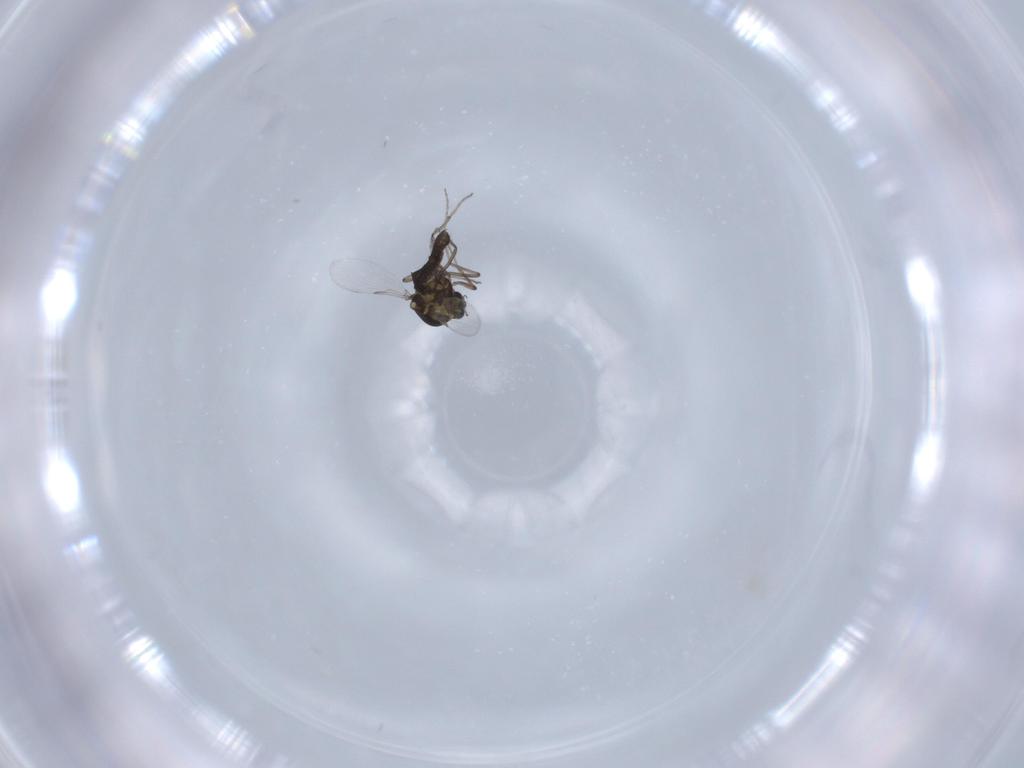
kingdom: Animalia
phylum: Arthropoda
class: Insecta
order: Diptera
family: Ceratopogonidae
